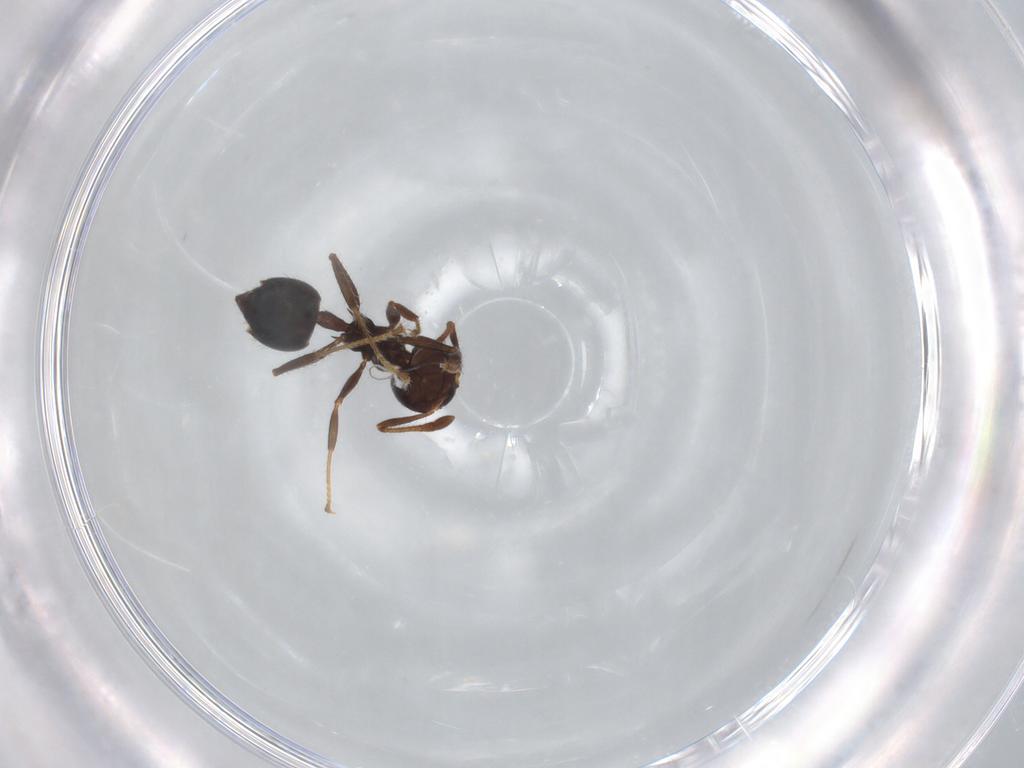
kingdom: Animalia
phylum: Arthropoda
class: Insecta
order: Hymenoptera
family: Formicidae
